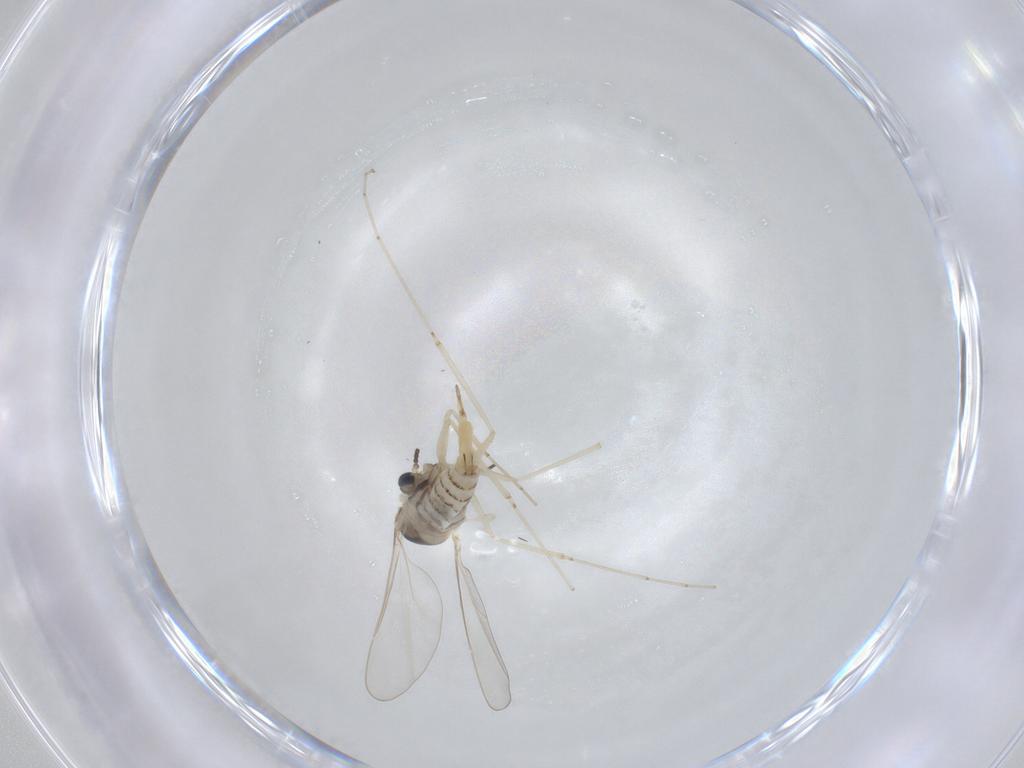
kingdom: Animalia
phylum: Arthropoda
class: Insecta
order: Diptera
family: Cecidomyiidae
